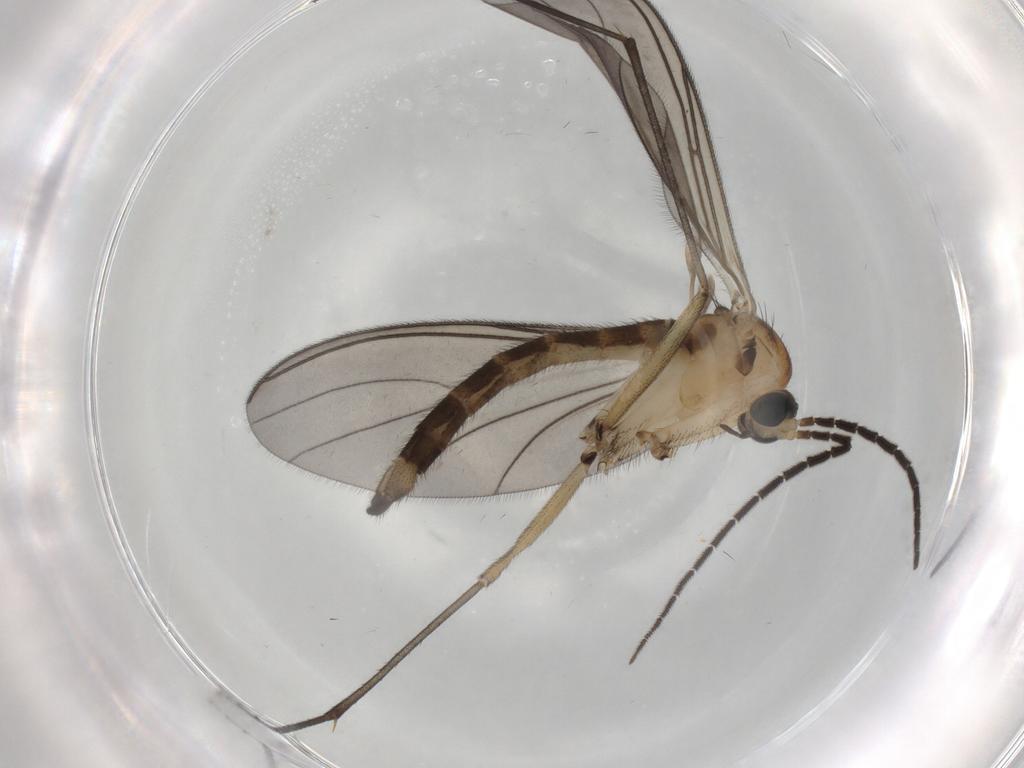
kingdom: Animalia
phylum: Arthropoda
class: Insecta
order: Diptera
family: Sciaridae
